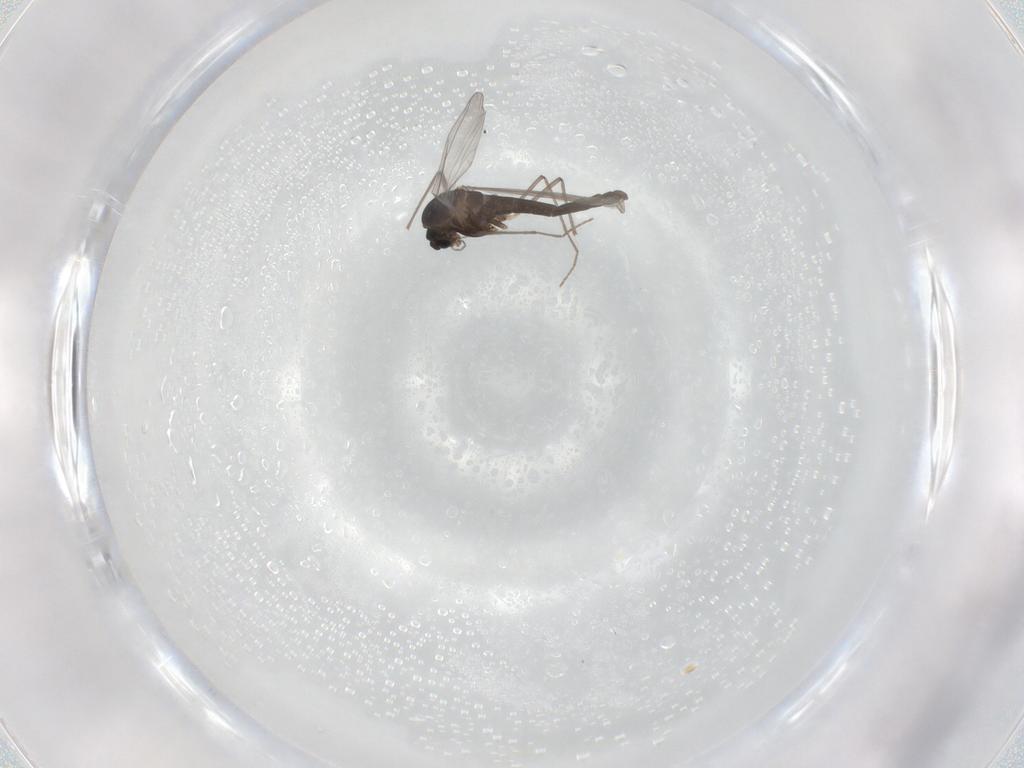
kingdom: Animalia
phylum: Arthropoda
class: Insecta
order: Diptera
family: Chironomidae
